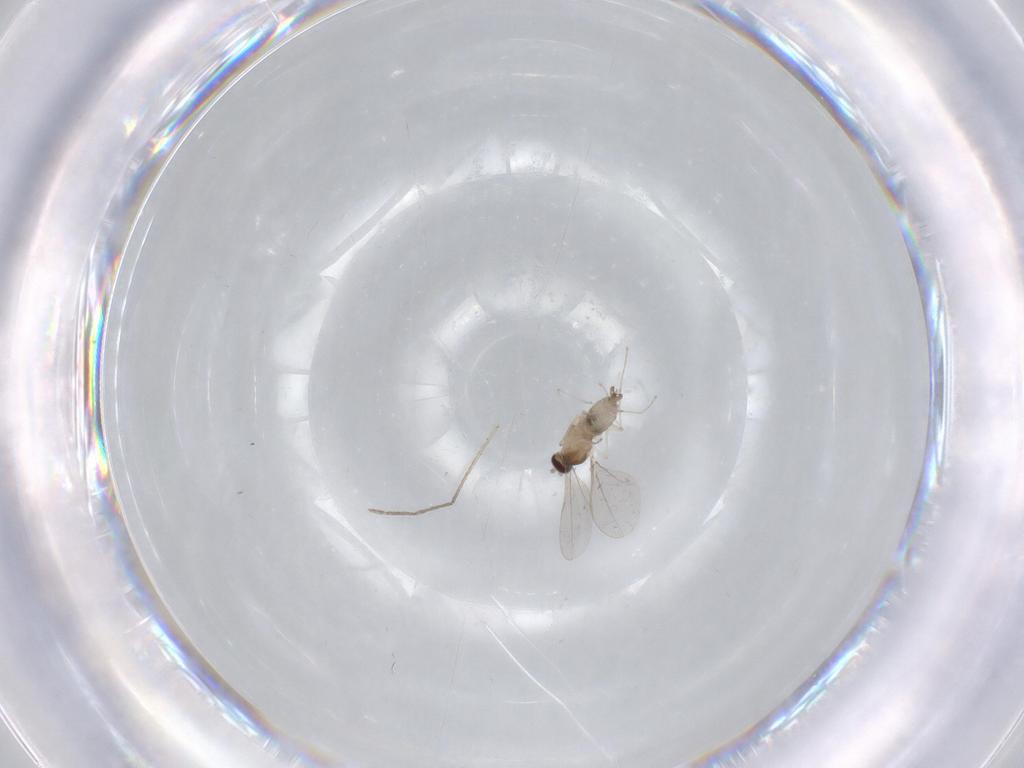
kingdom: Animalia
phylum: Arthropoda
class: Insecta
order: Diptera
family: Cecidomyiidae
